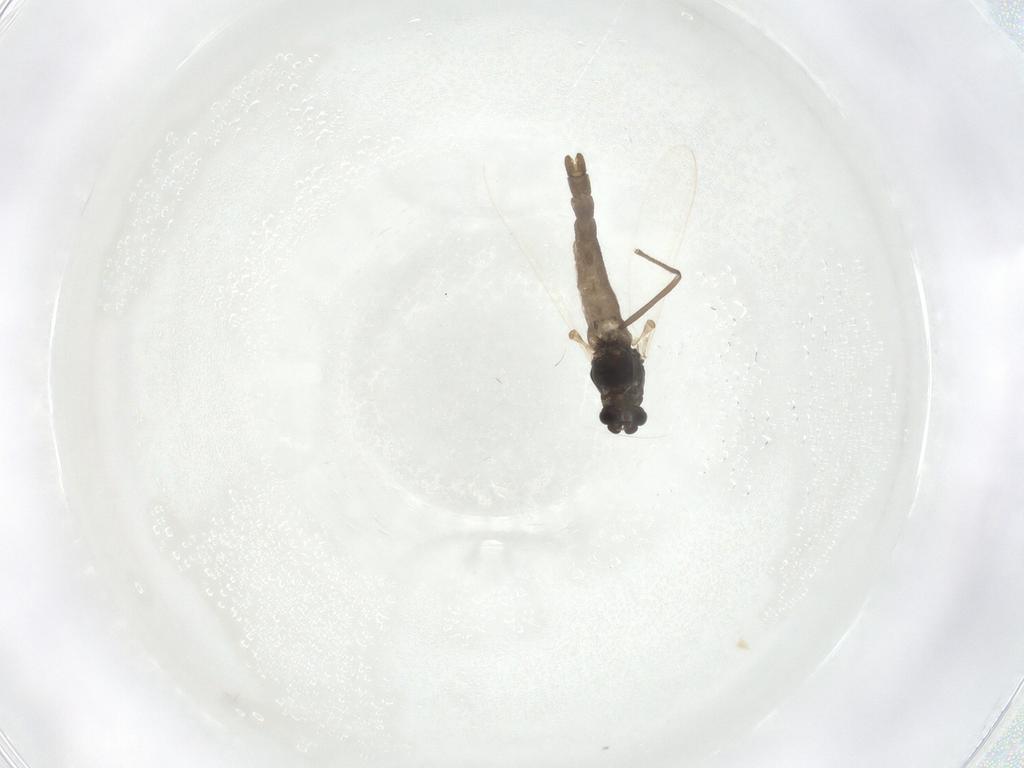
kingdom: Animalia
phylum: Arthropoda
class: Insecta
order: Diptera
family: Chironomidae
